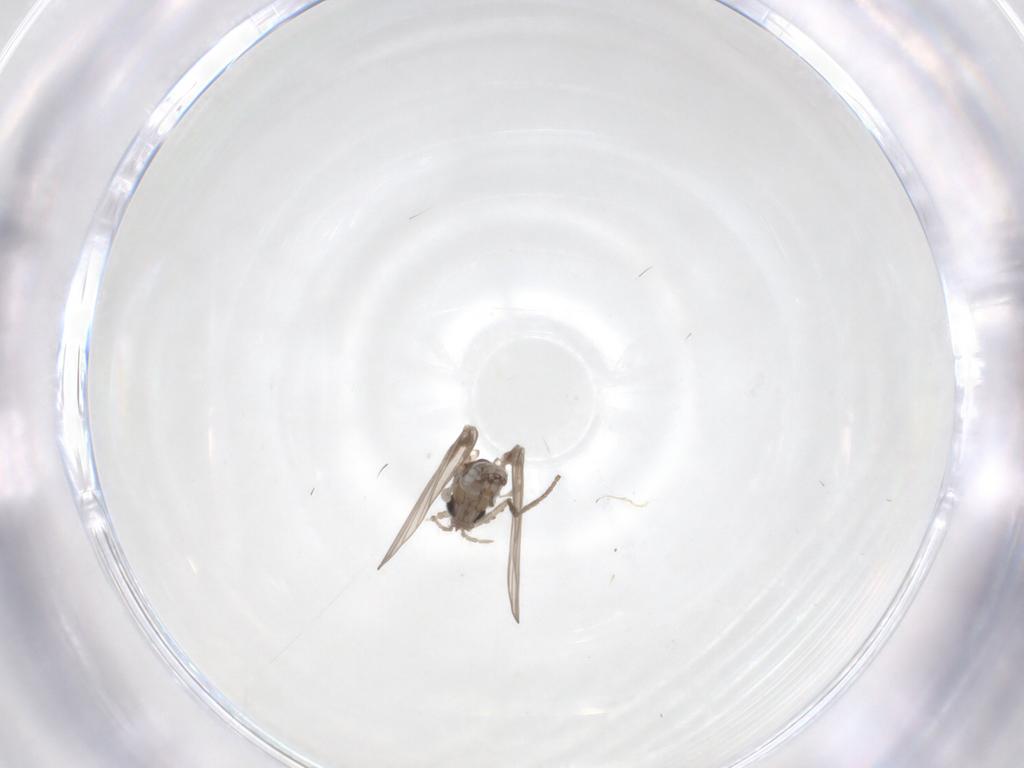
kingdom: Animalia
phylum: Arthropoda
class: Insecta
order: Diptera
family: Psychodidae
